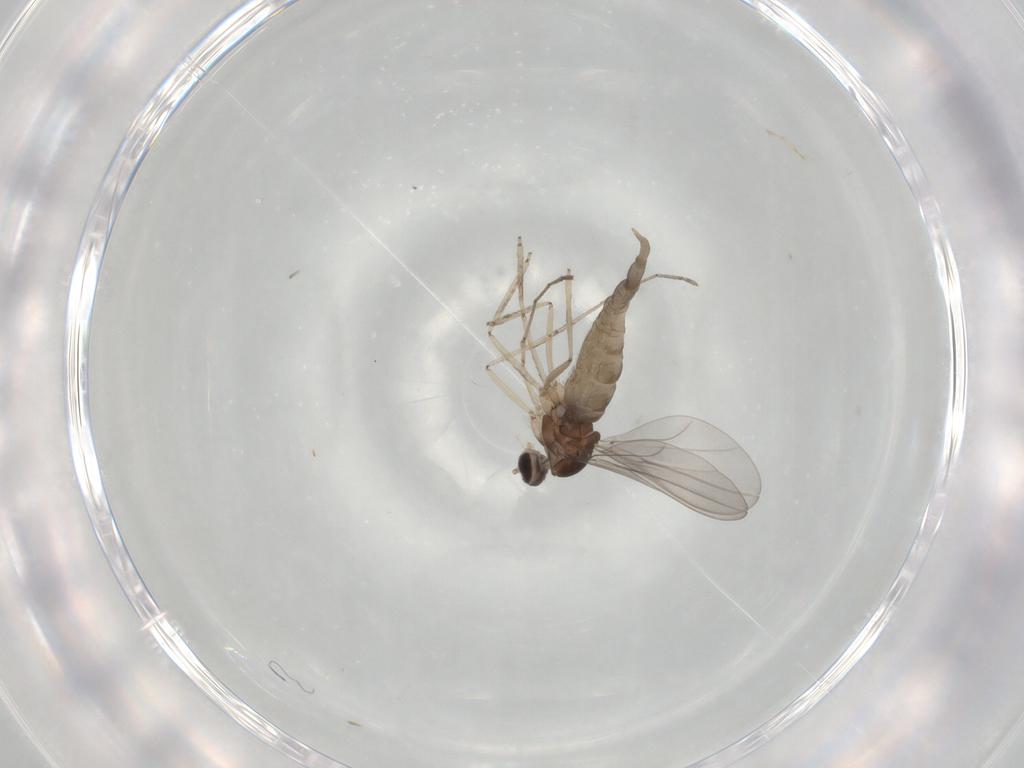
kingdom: Animalia
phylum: Arthropoda
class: Insecta
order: Diptera
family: Cecidomyiidae
